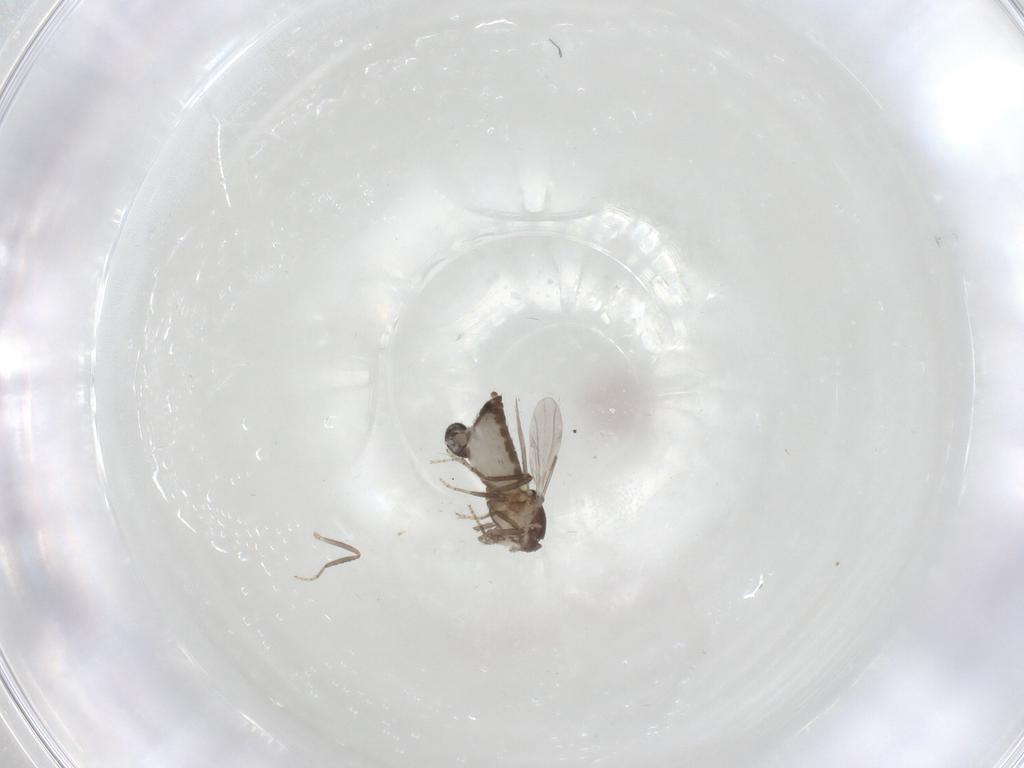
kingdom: Animalia
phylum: Arthropoda
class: Insecta
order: Diptera
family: Ceratopogonidae
